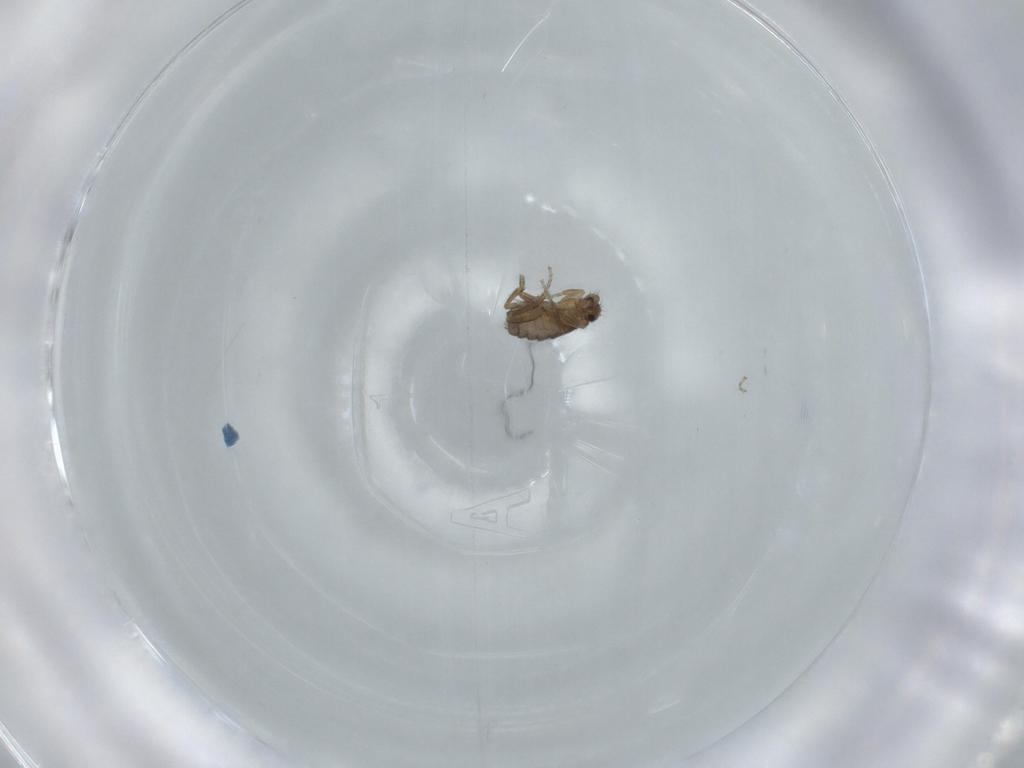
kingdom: Animalia
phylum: Arthropoda
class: Insecta
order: Diptera
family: Phoridae
